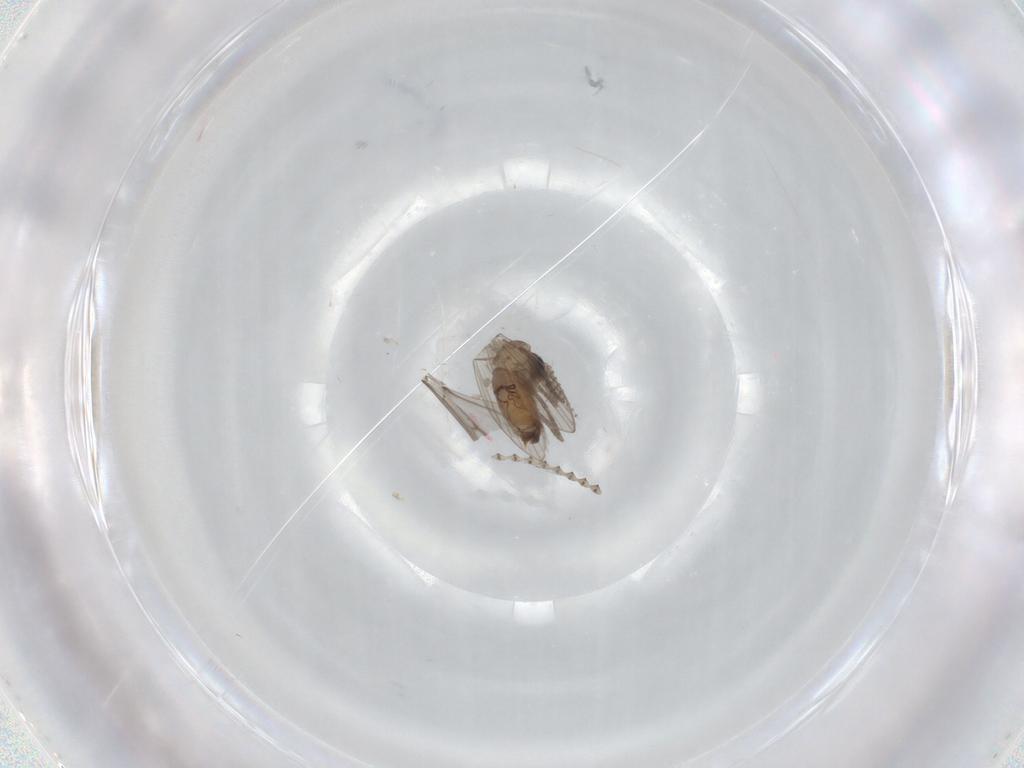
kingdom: Animalia
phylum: Arthropoda
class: Insecta
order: Diptera
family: Psychodidae
